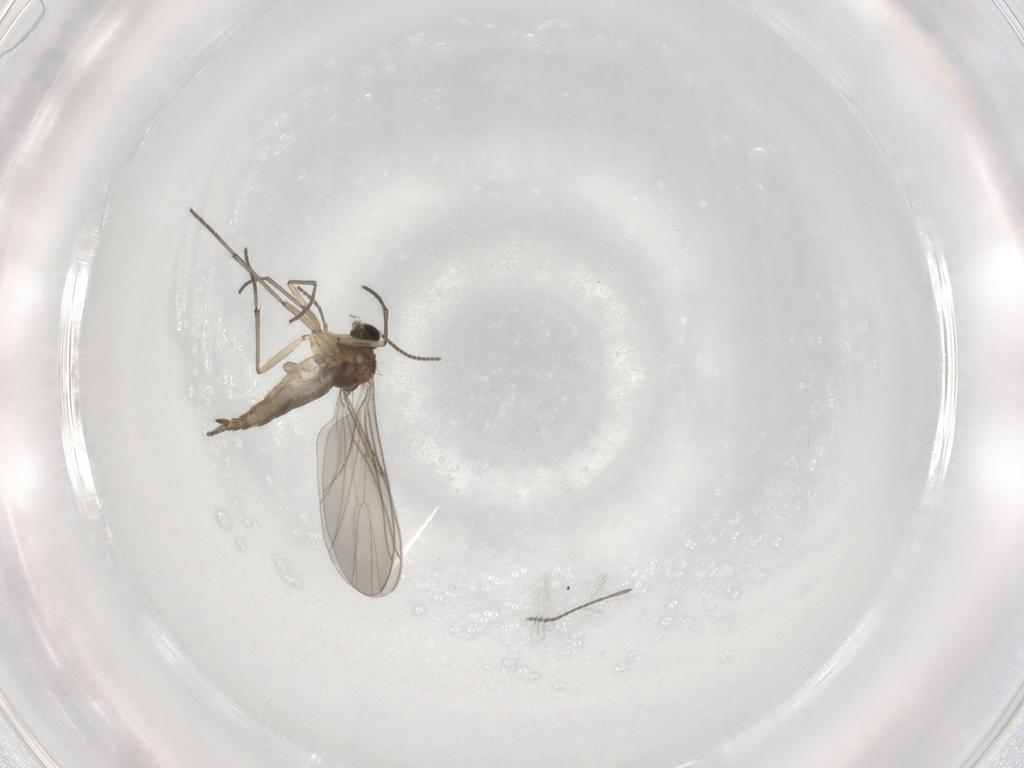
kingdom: Animalia
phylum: Arthropoda
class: Insecta
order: Diptera
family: Sciaridae
